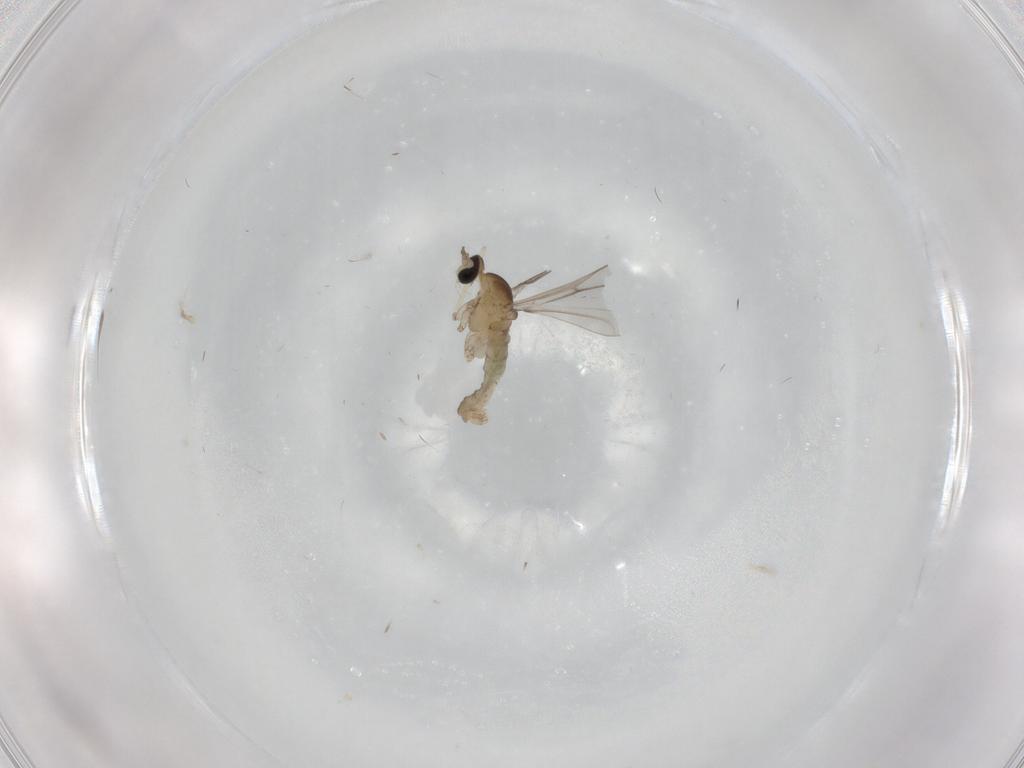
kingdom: Animalia
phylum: Arthropoda
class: Insecta
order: Diptera
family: Cecidomyiidae
